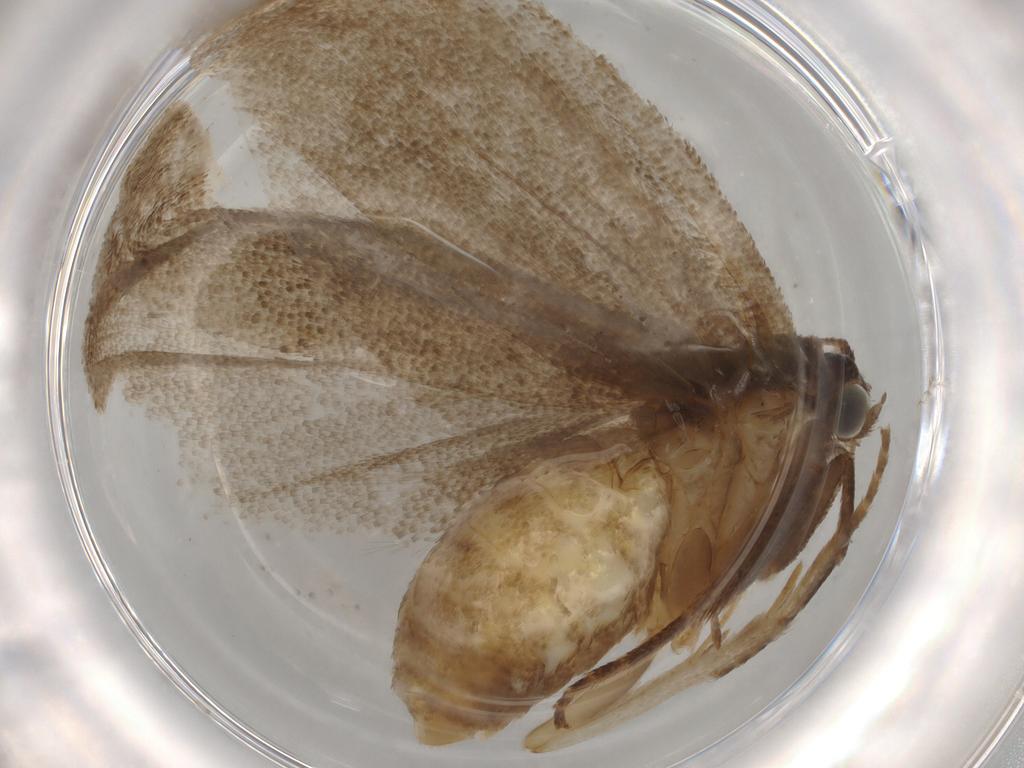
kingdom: Animalia
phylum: Arthropoda
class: Insecta
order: Lepidoptera
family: Tortricidae
